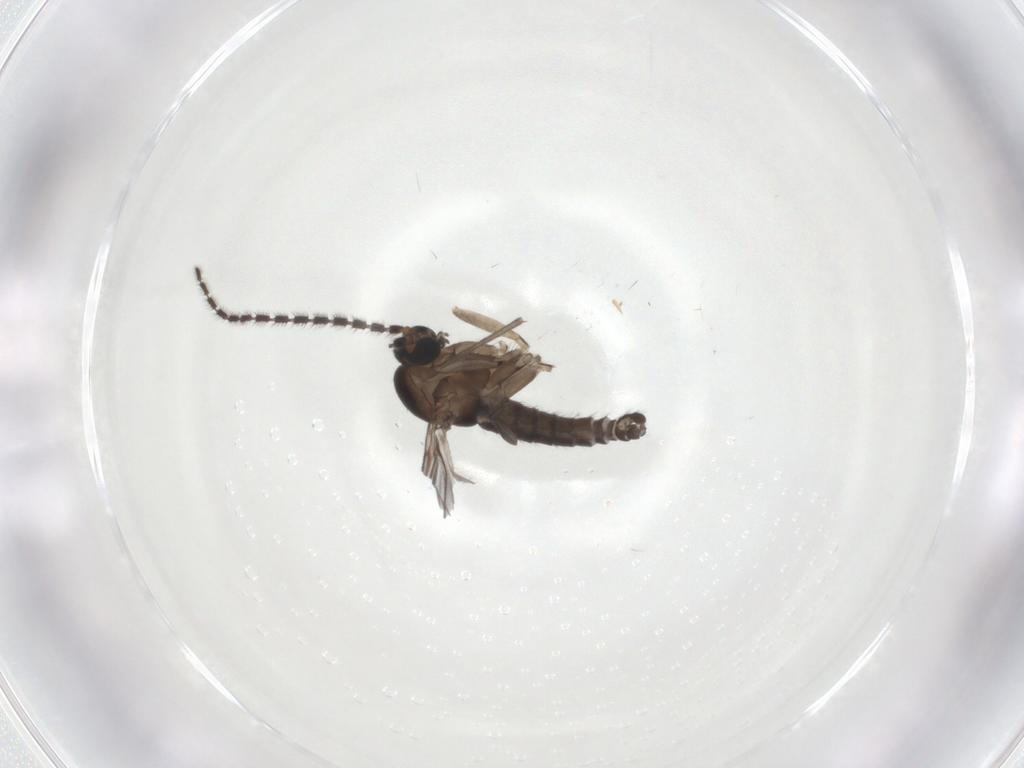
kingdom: Animalia
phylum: Arthropoda
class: Insecta
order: Diptera
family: Sciaridae
